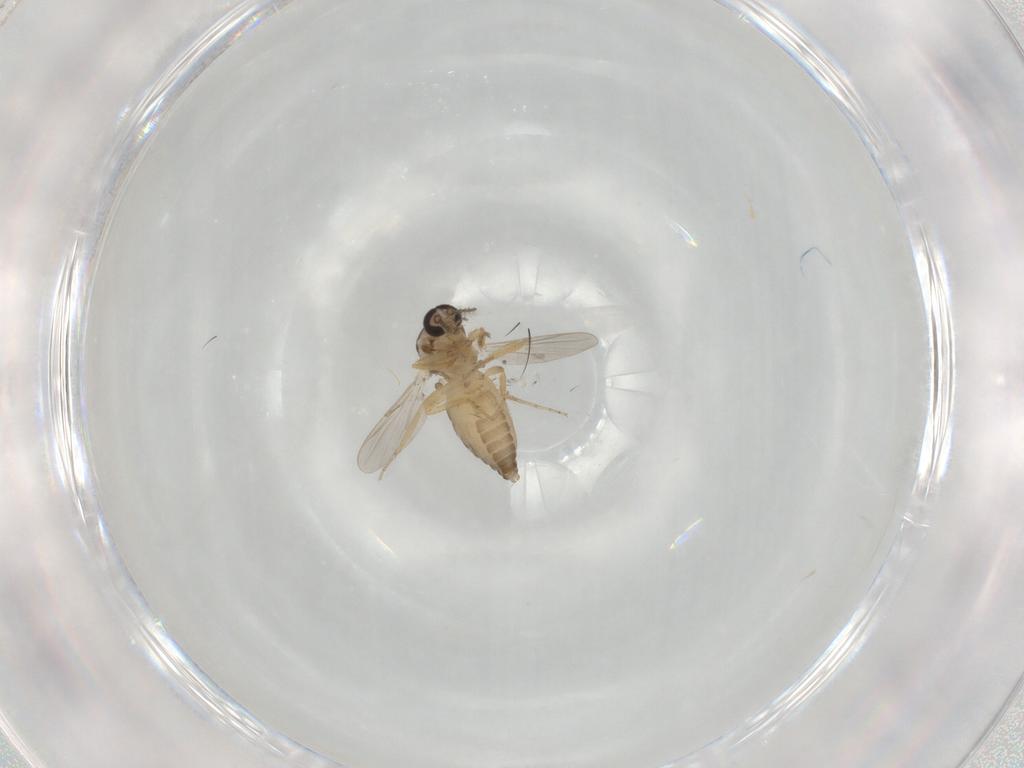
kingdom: Animalia
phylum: Arthropoda
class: Insecta
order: Diptera
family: Ceratopogonidae
